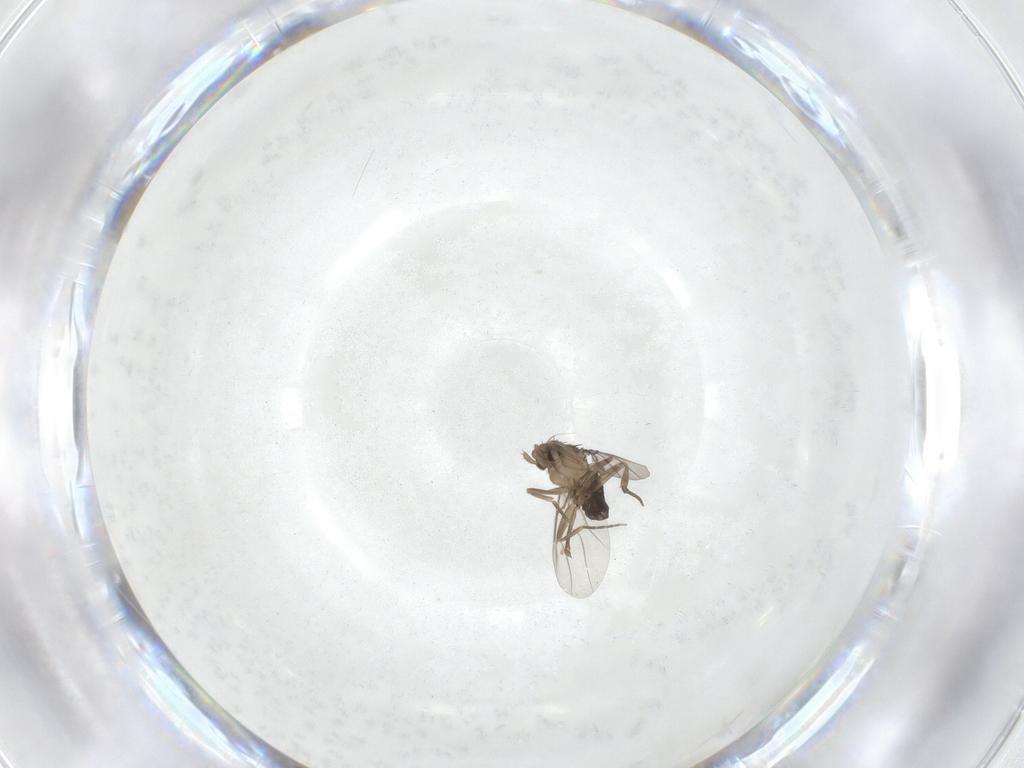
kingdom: Animalia
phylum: Arthropoda
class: Insecta
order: Diptera
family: Phoridae
